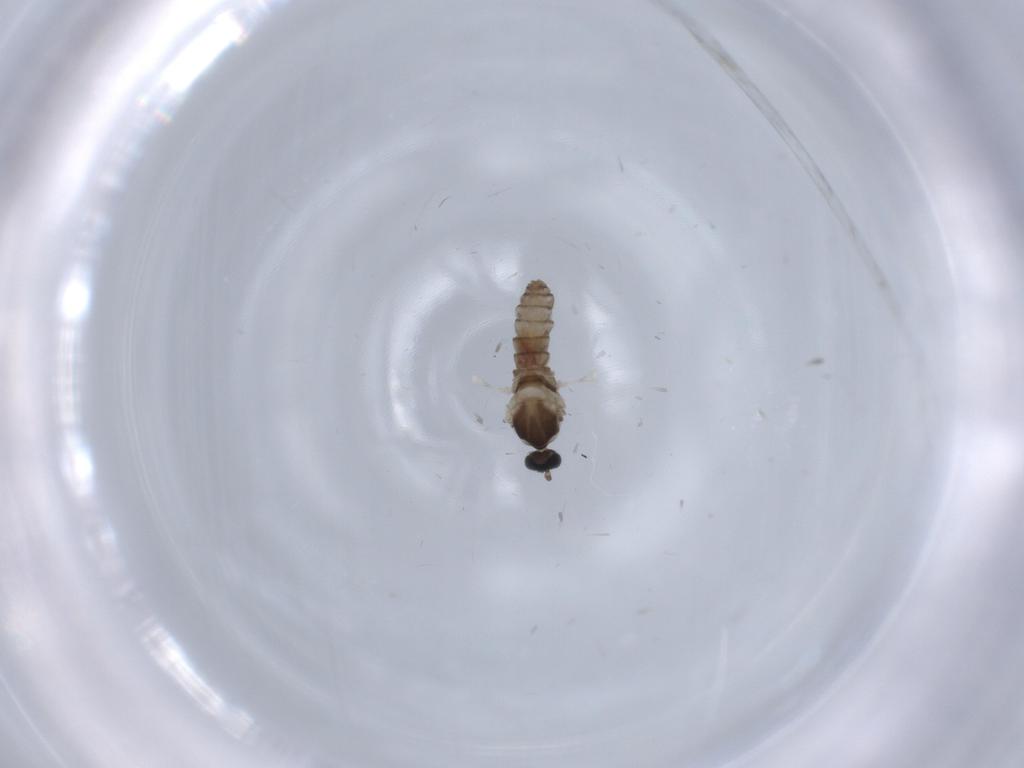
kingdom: Animalia
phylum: Arthropoda
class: Insecta
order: Diptera
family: Cecidomyiidae
